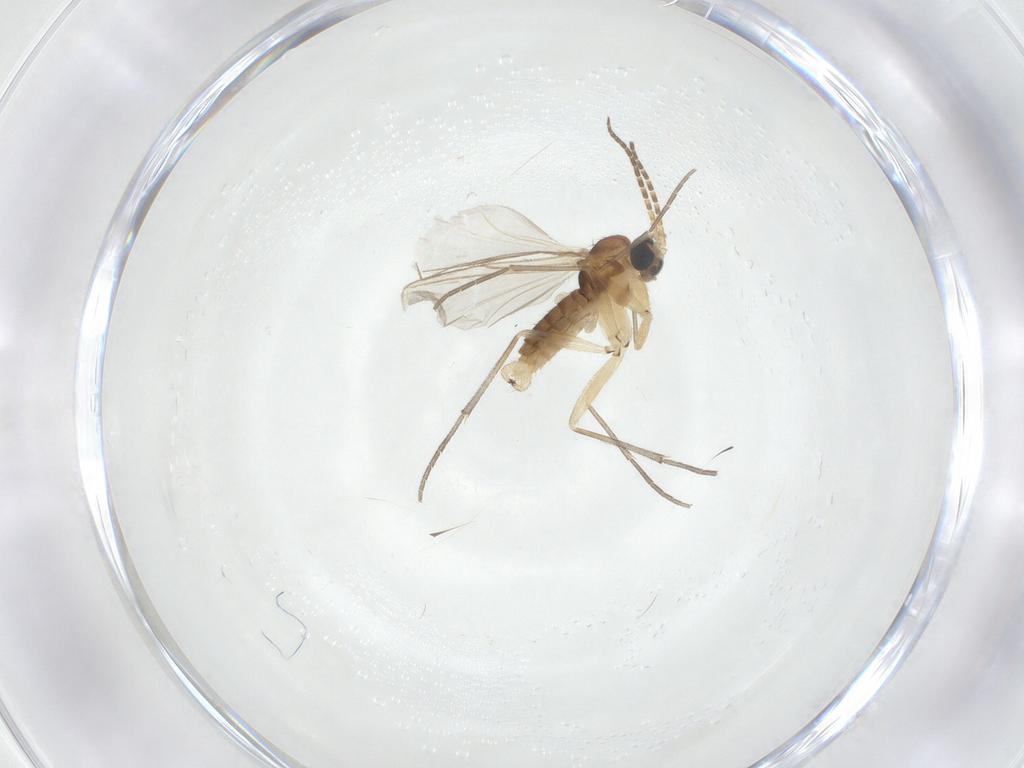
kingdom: Animalia
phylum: Arthropoda
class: Insecta
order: Diptera
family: Sciaridae
